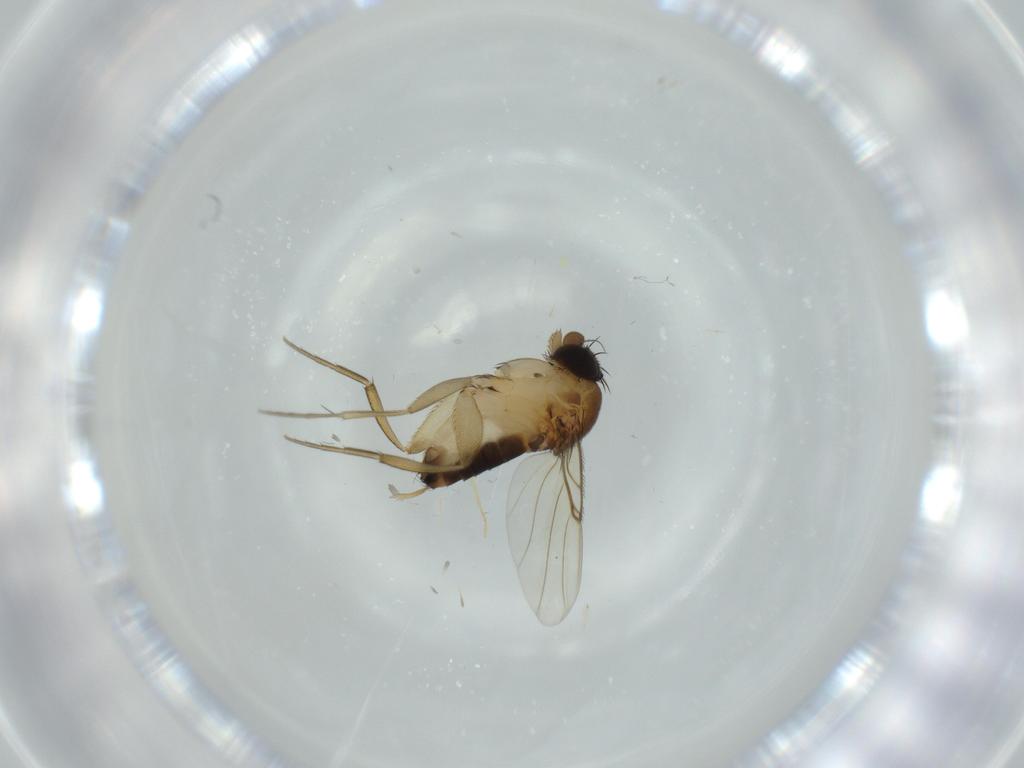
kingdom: Animalia
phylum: Arthropoda
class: Insecta
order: Diptera
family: Phoridae
